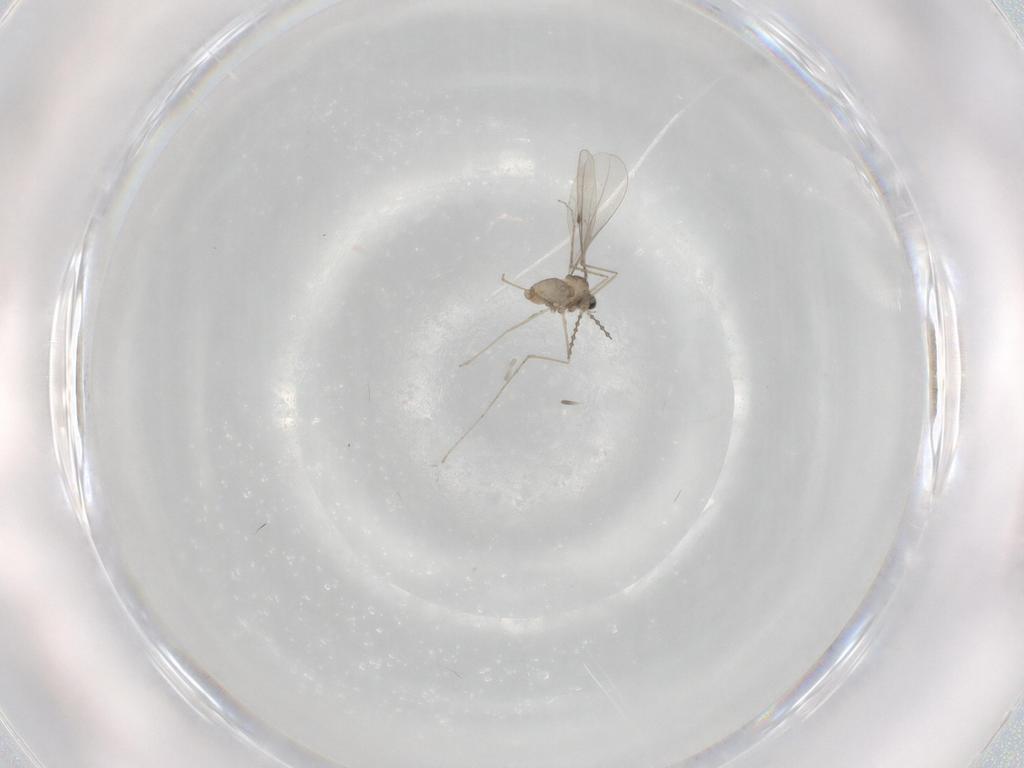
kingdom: Animalia
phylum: Arthropoda
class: Insecta
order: Diptera
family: Cecidomyiidae
